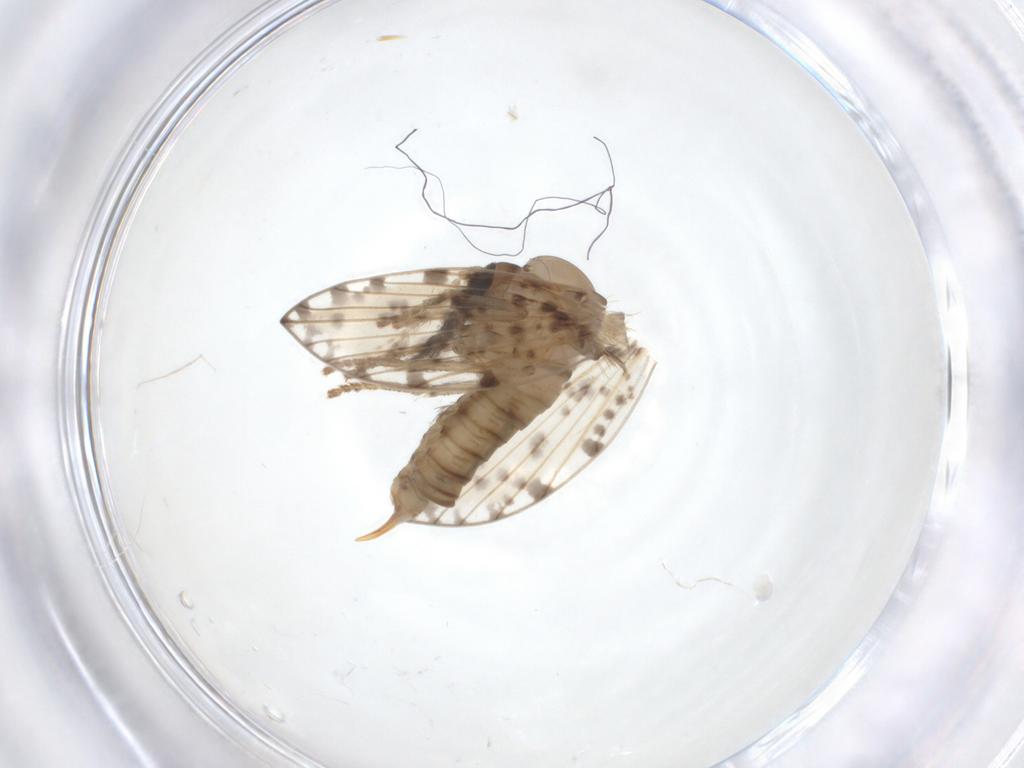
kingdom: Animalia
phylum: Arthropoda
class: Insecta
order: Diptera
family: Psychodidae
